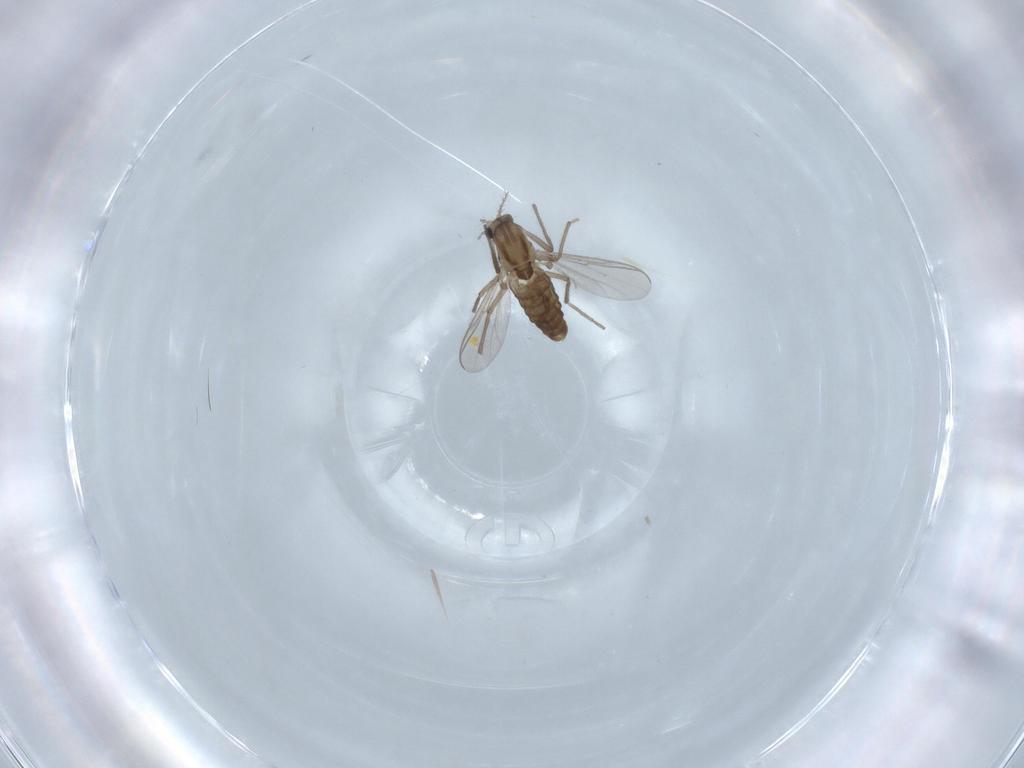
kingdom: Animalia
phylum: Arthropoda
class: Insecta
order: Diptera
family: Chironomidae
